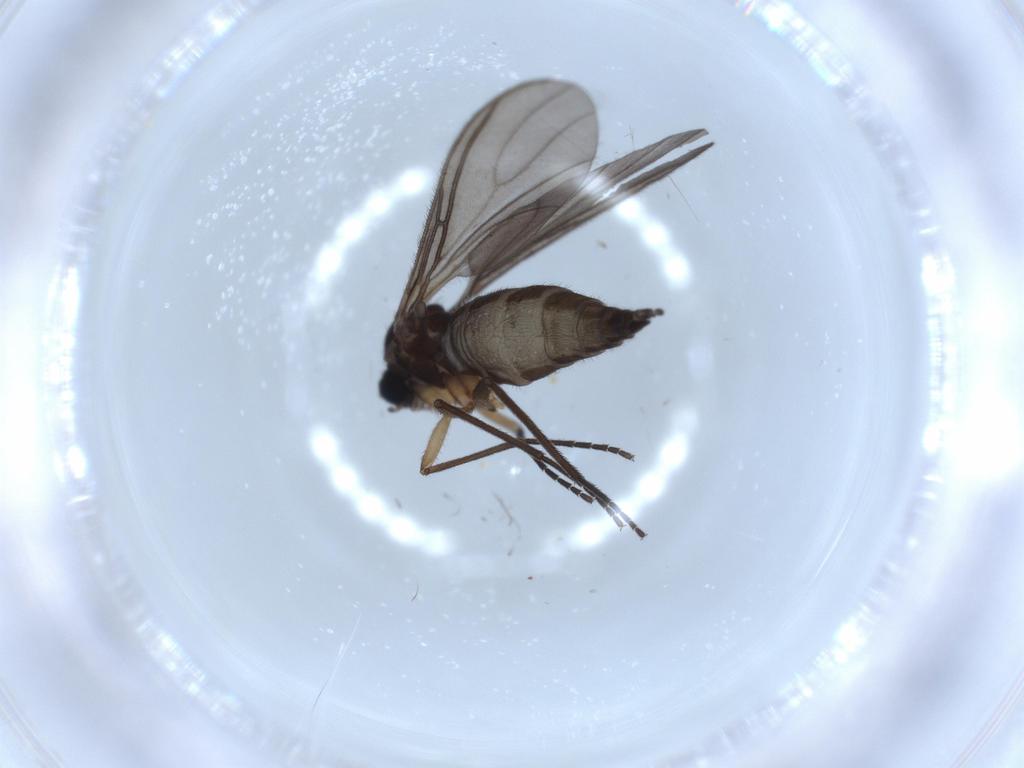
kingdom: Animalia
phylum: Arthropoda
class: Insecta
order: Diptera
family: Sciaridae
